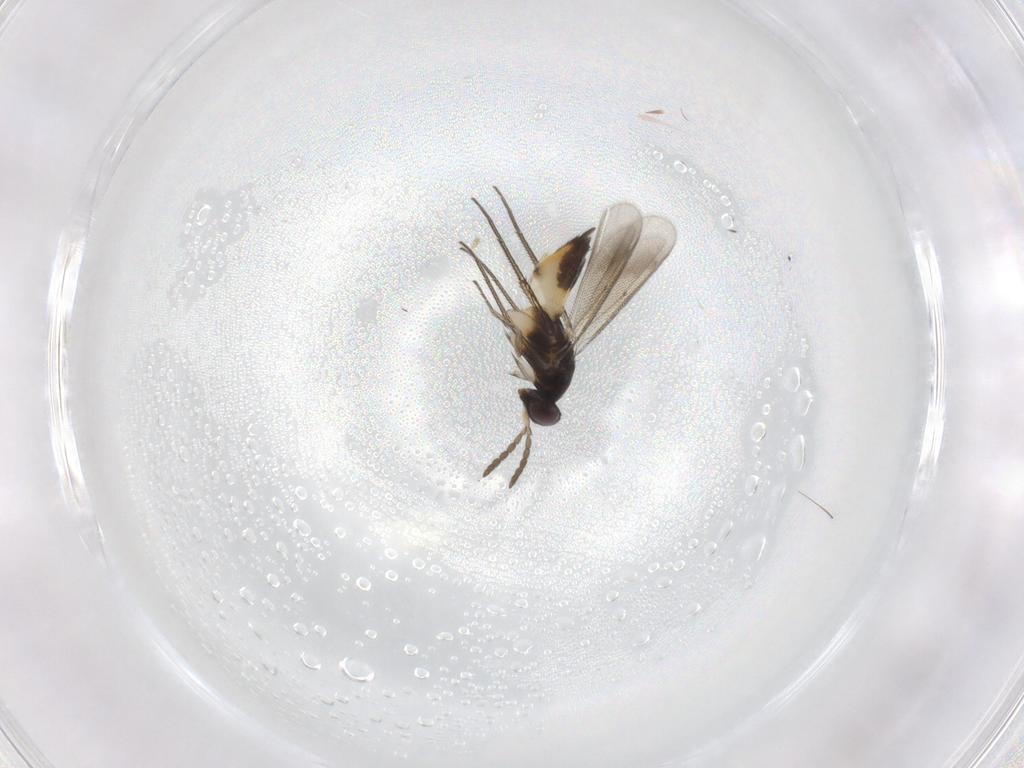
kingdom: Animalia
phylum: Arthropoda
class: Insecta
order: Hymenoptera
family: Eulophidae
